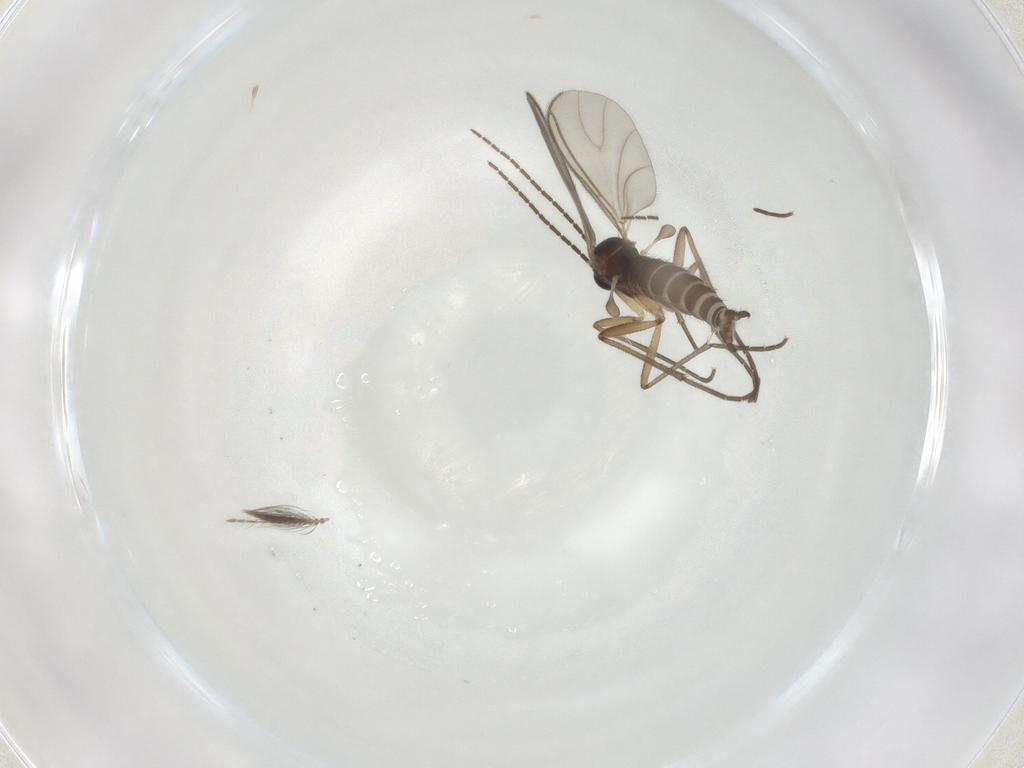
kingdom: Animalia
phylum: Arthropoda
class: Insecta
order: Diptera
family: Sciaridae
